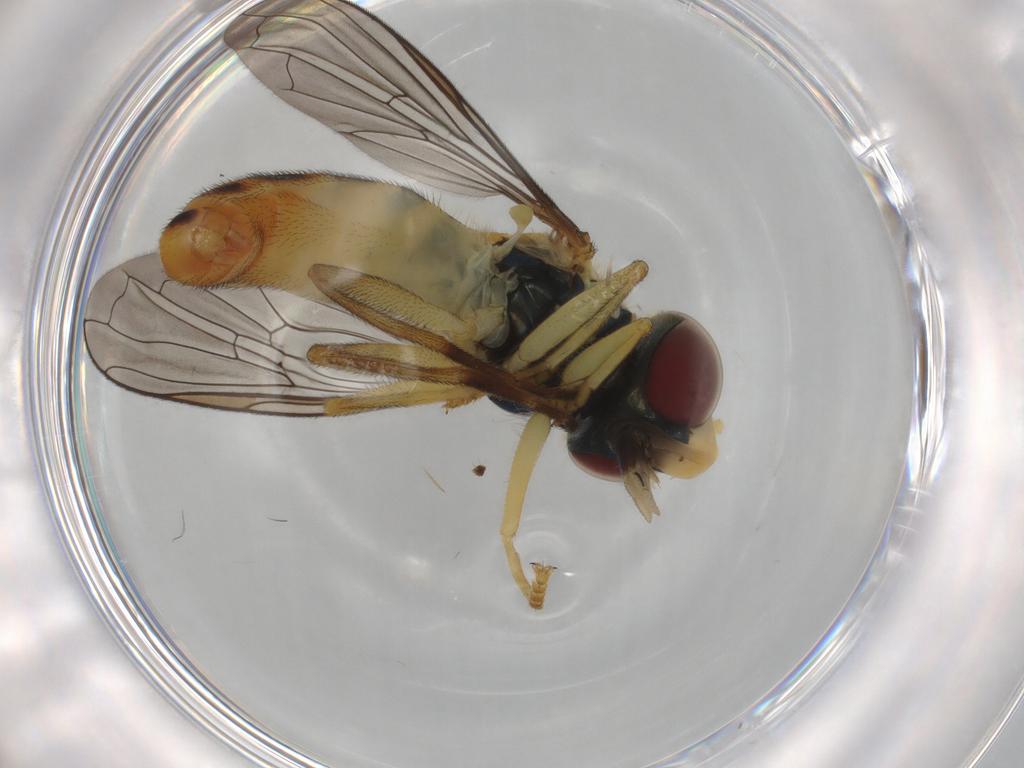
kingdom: Animalia
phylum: Arthropoda
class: Insecta
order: Diptera
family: Syrphidae
